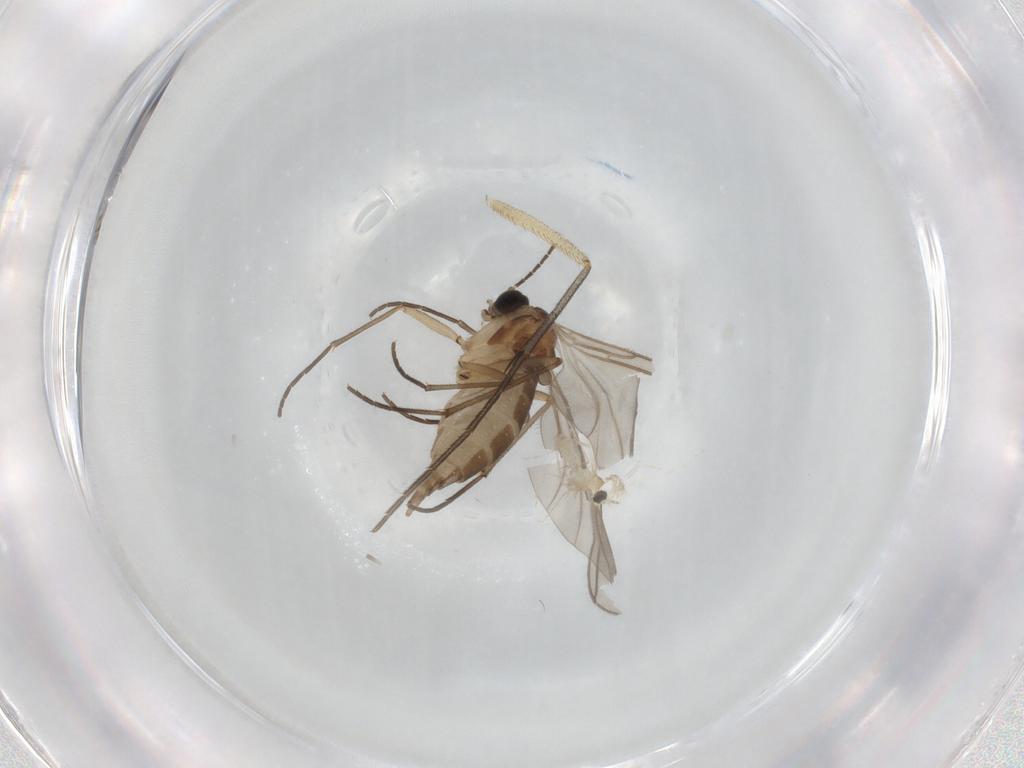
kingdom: Animalia
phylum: Arthropoda
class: Insecta
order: Diptera
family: Sciaridae
